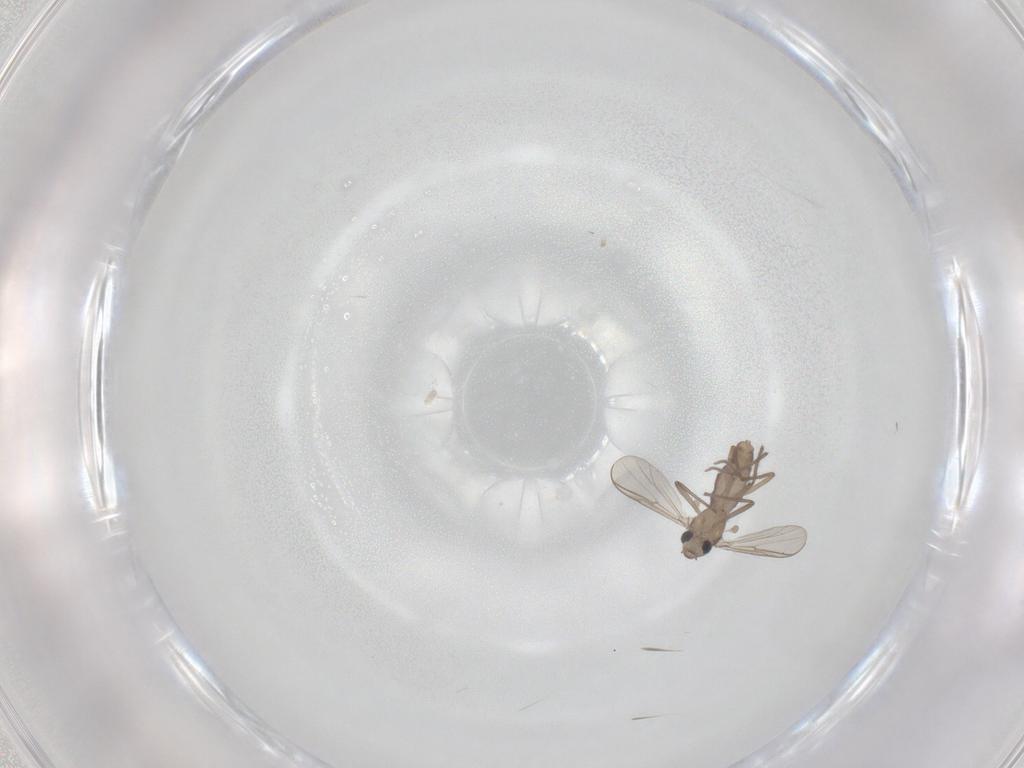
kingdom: Animalia
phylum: Arthropoda
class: Insecta
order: Diptera
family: Chironomidae
